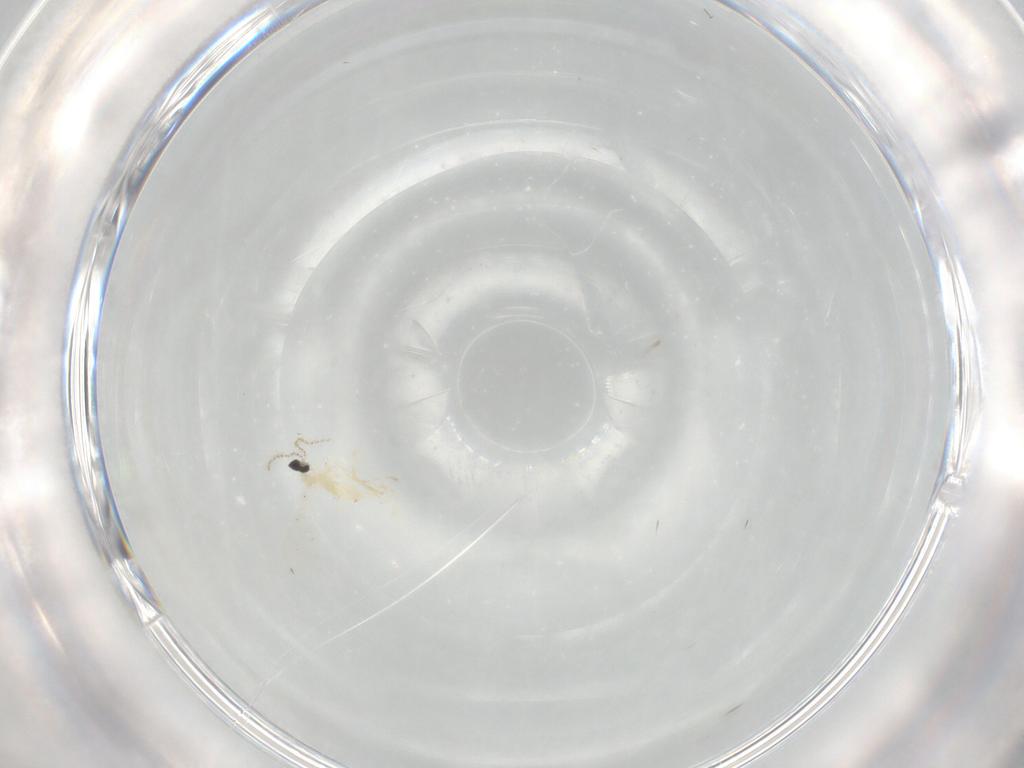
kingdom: Animalia
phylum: Arthropoda
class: Insecta
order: Diptera
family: Cecidomyiidae
